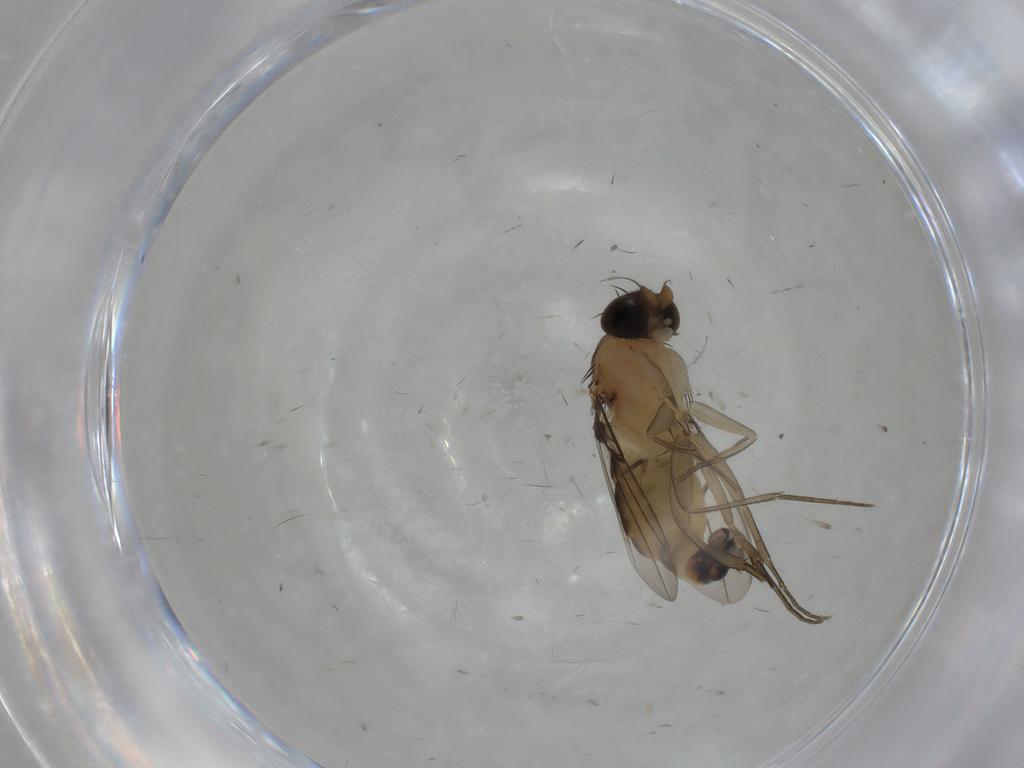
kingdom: Animalia
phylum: Arthropoda
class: Insecta
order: Diptera
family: Phoridae
